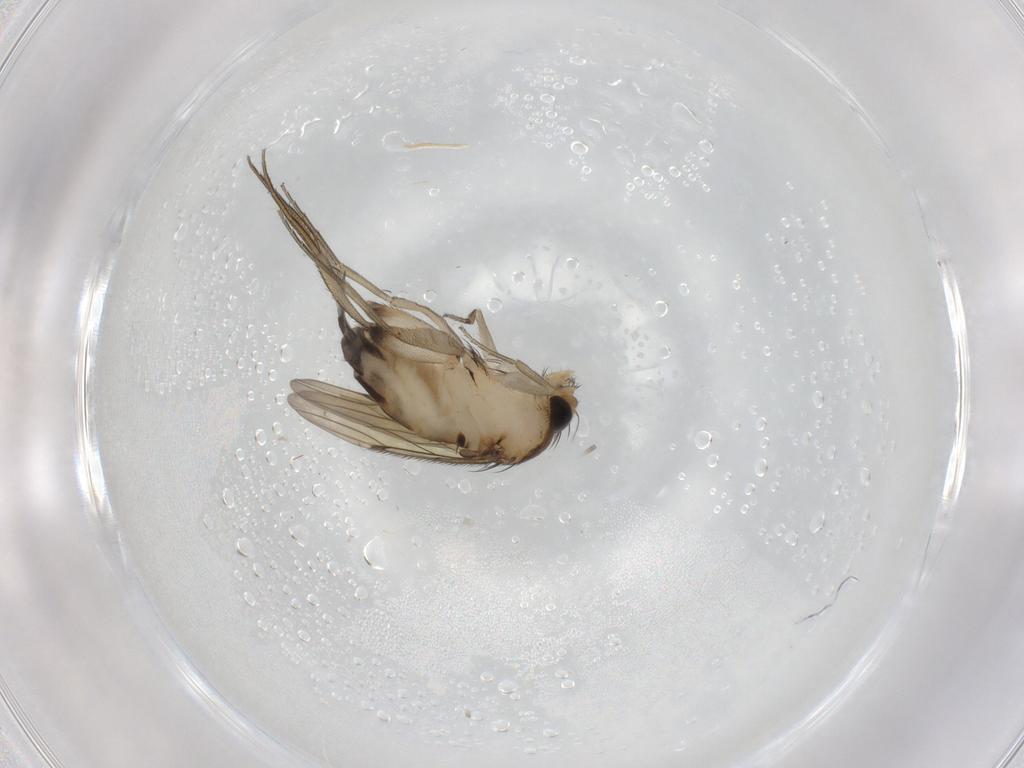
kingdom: Animalia
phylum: Arthropoda
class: Insecta
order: Diptera
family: Phoridae
